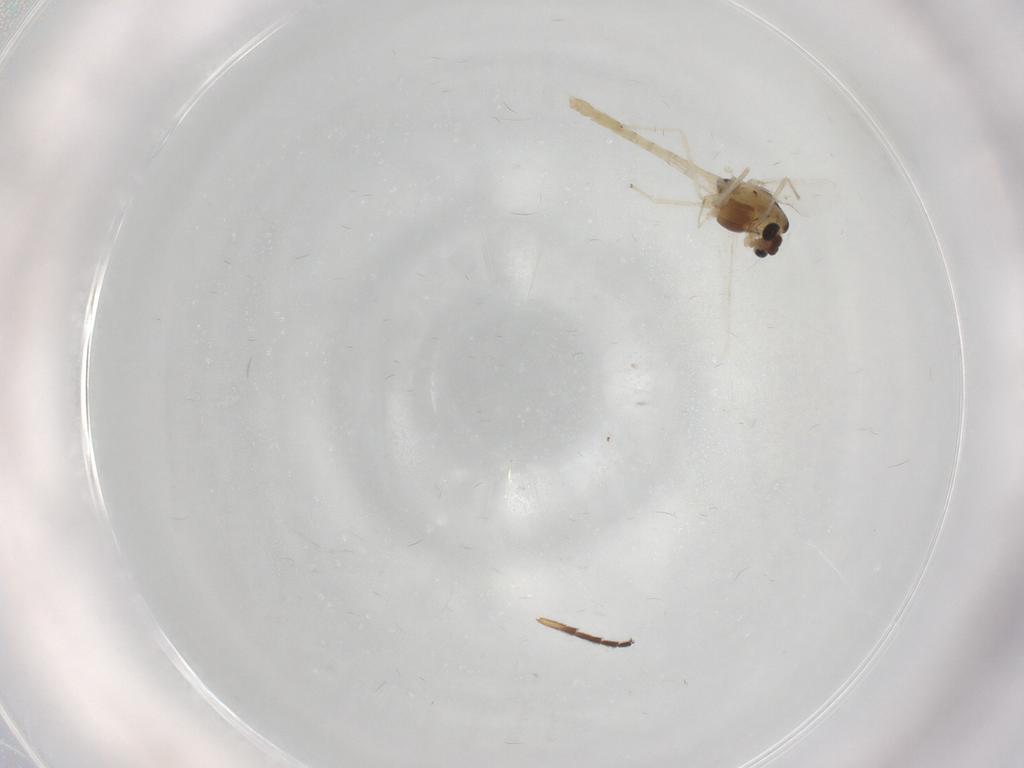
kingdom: Animalia
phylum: Arthropoda
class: Insecta
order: Diptera
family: Chironomidae
